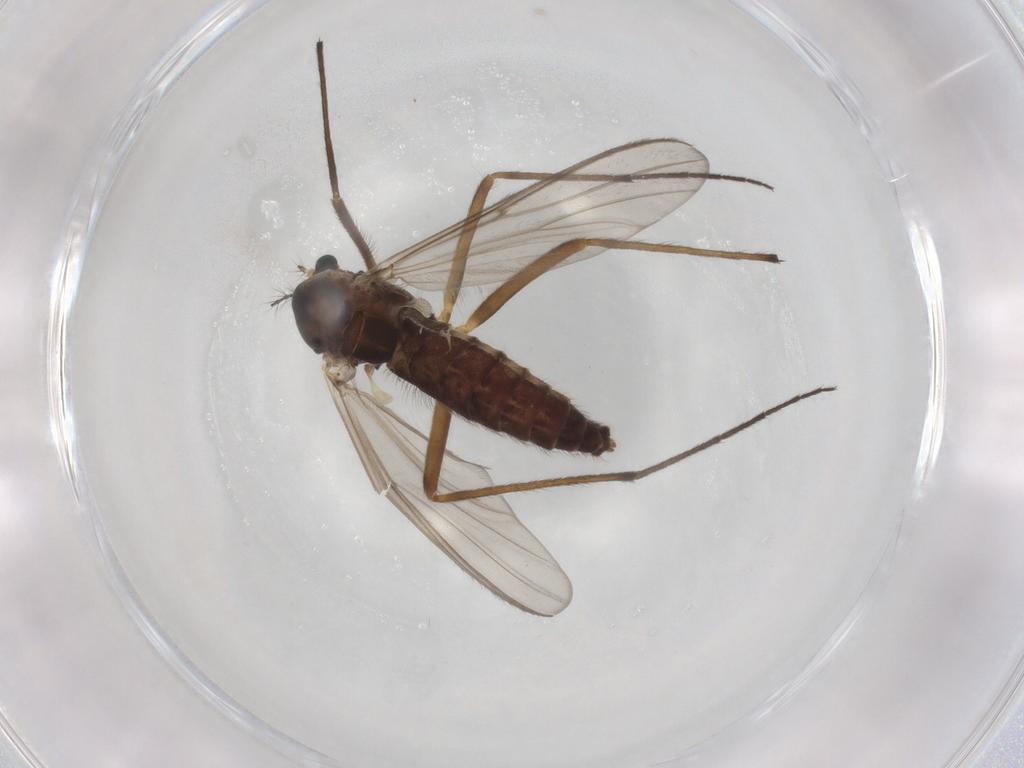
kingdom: Animalia
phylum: Arthropoda
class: Insecta
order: Diptera
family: Chironomidae
